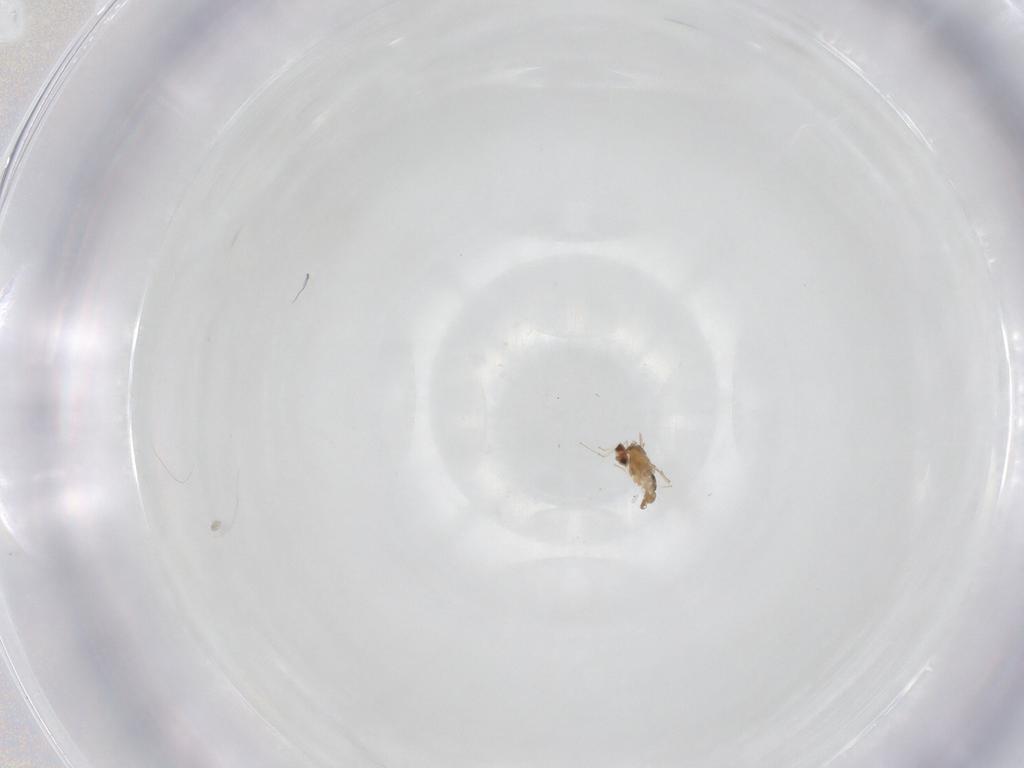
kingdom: Animalia
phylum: Arthropoda
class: Insecta
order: Diptera
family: Cecidomyiidae
